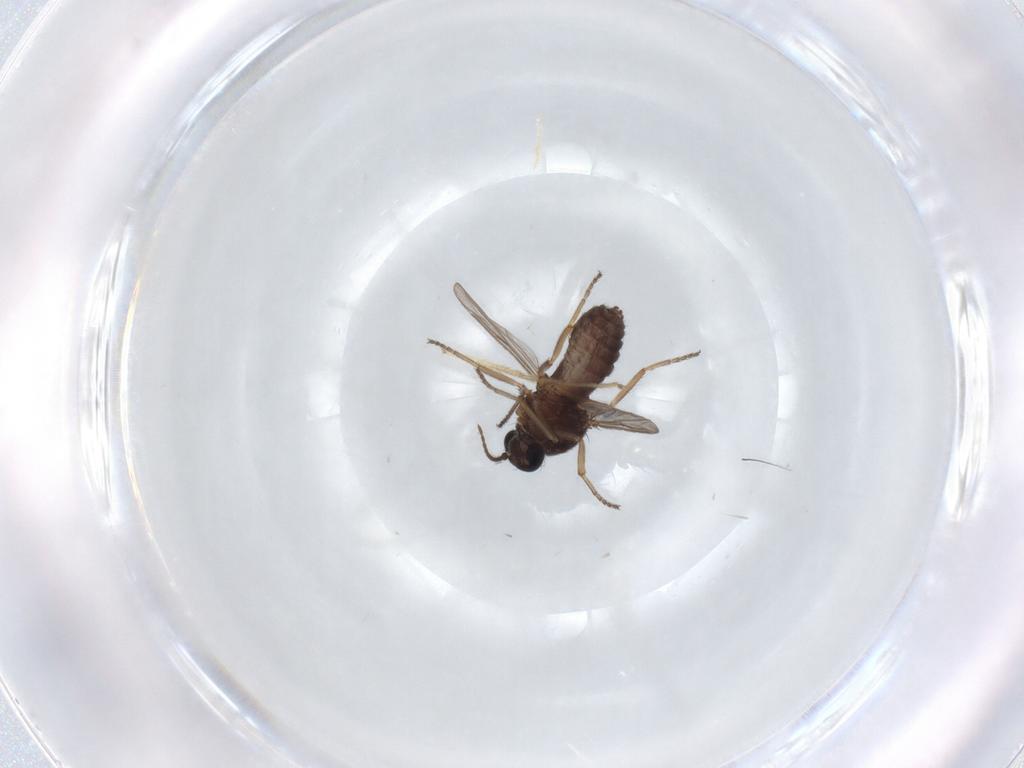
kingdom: Animalia
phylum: Arthropoda
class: Insecta
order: Diptera
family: Ceratopogonidae
